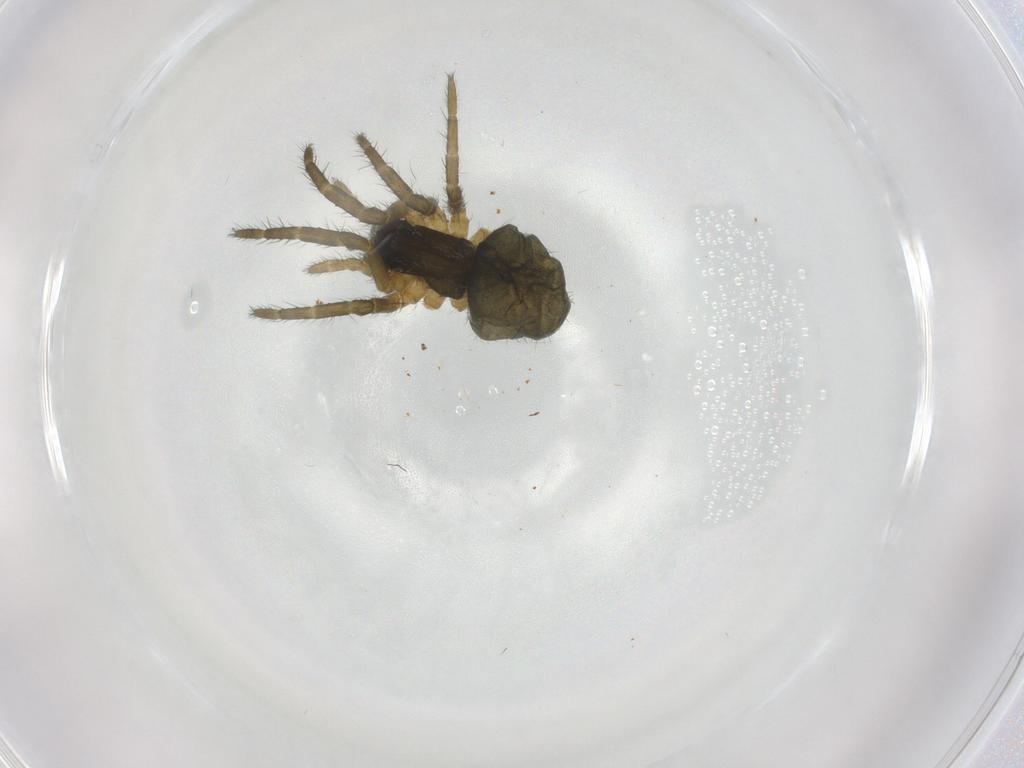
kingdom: Animalia
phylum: Arthropoda
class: Arachnida
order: Araneae
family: Lycosidae
